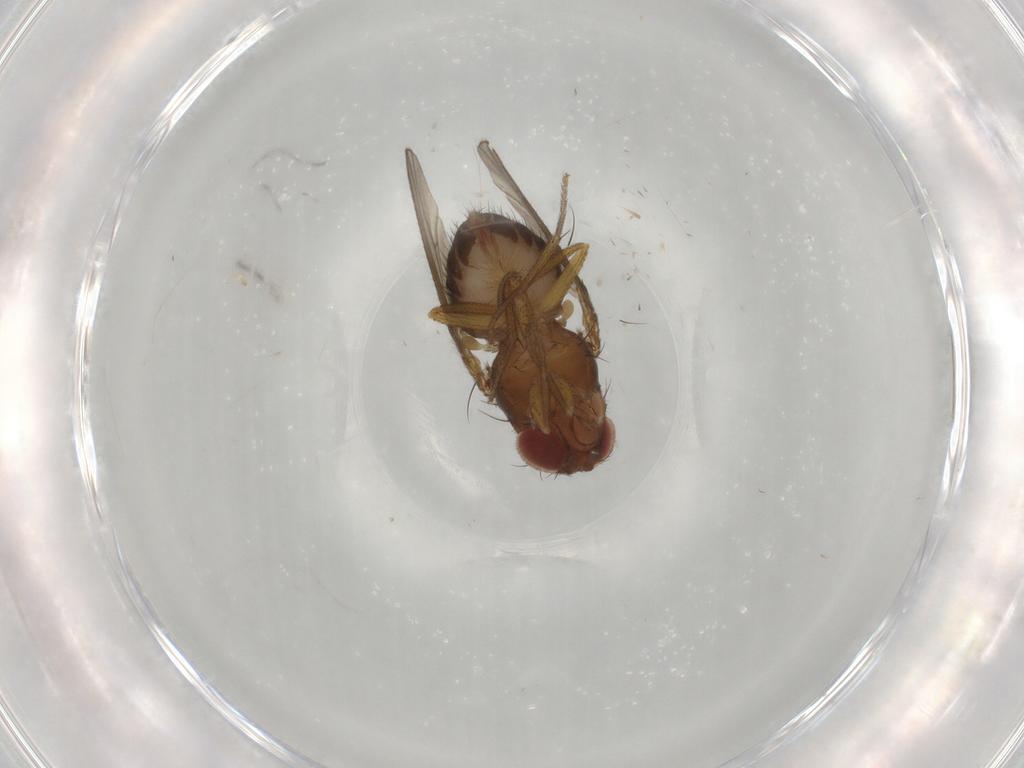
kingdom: Animalia
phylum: Arthropoda
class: Insecta
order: Diptera
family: Drosophilidae
